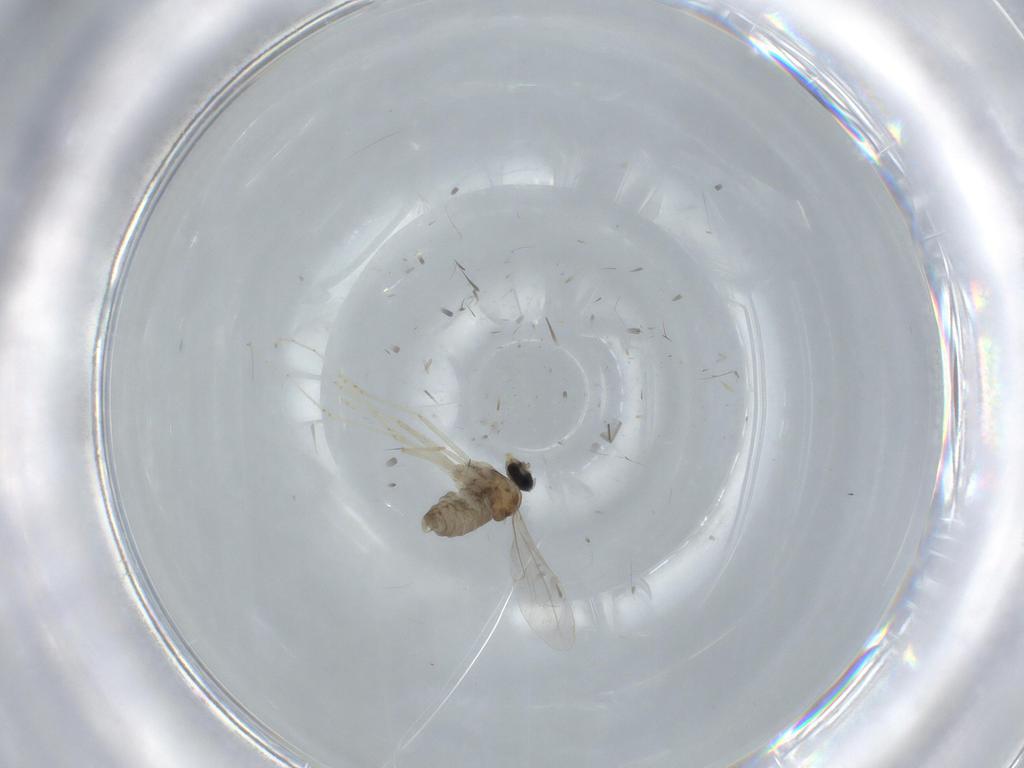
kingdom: Animalia
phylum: Arthropoda
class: Insecta
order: Diptera
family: Cecidomyiidae
